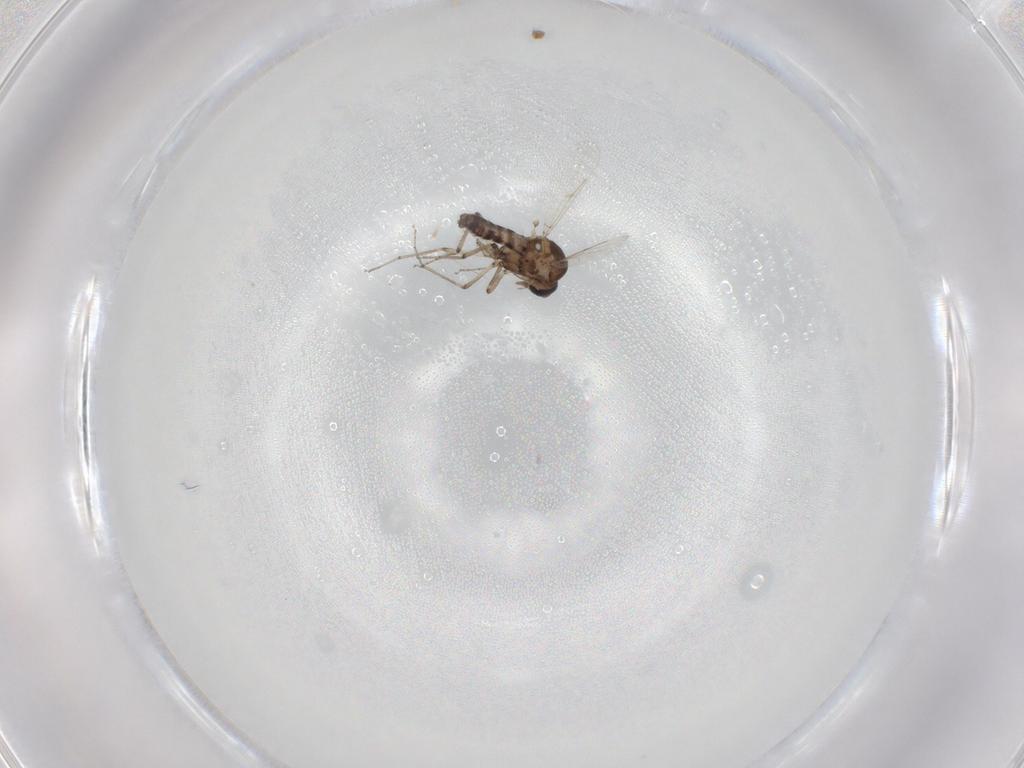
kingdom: Animalia
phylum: Arthropoda
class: Insecta
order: Diptera
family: Ceratopogonidae
